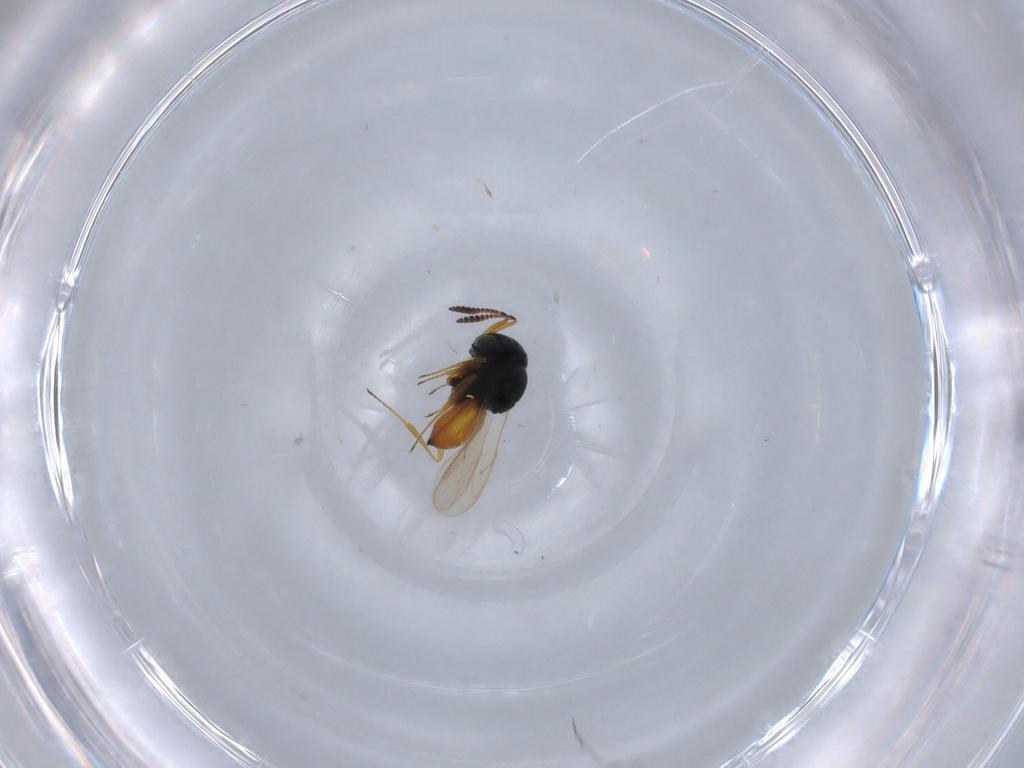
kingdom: Animalia
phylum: Arthropoda
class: Insecta
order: Hymenoptera
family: Scelionidae
